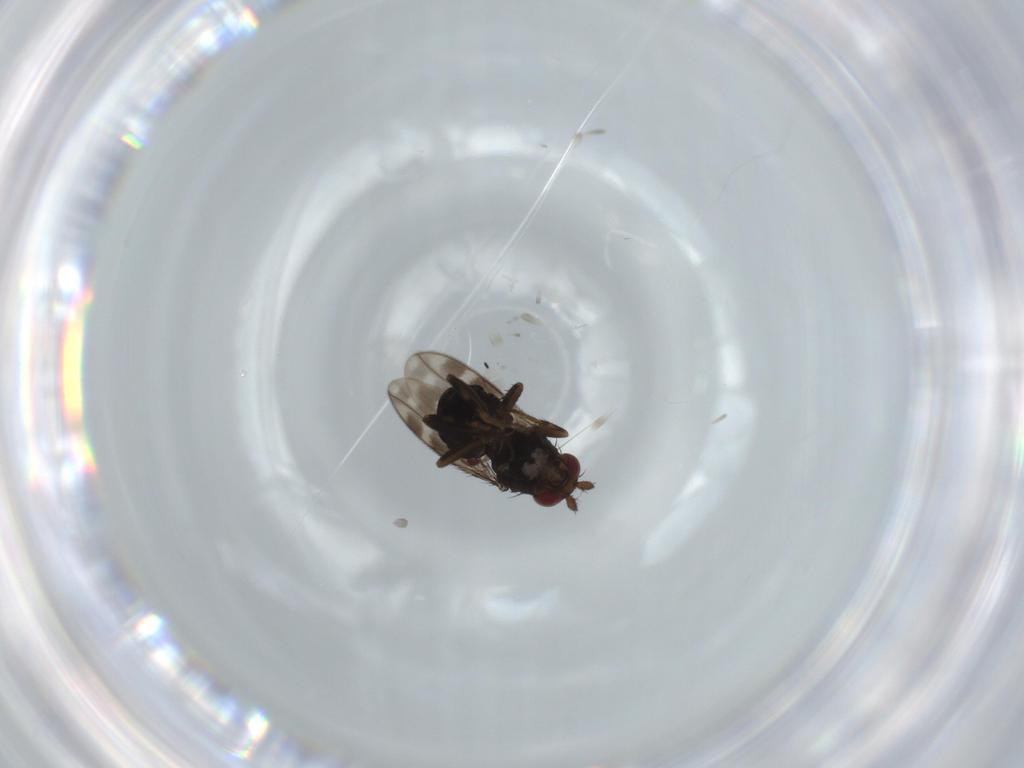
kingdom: Animalia
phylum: Arthropoda
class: Insecta
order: Diptera
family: Sphaeroceridae
